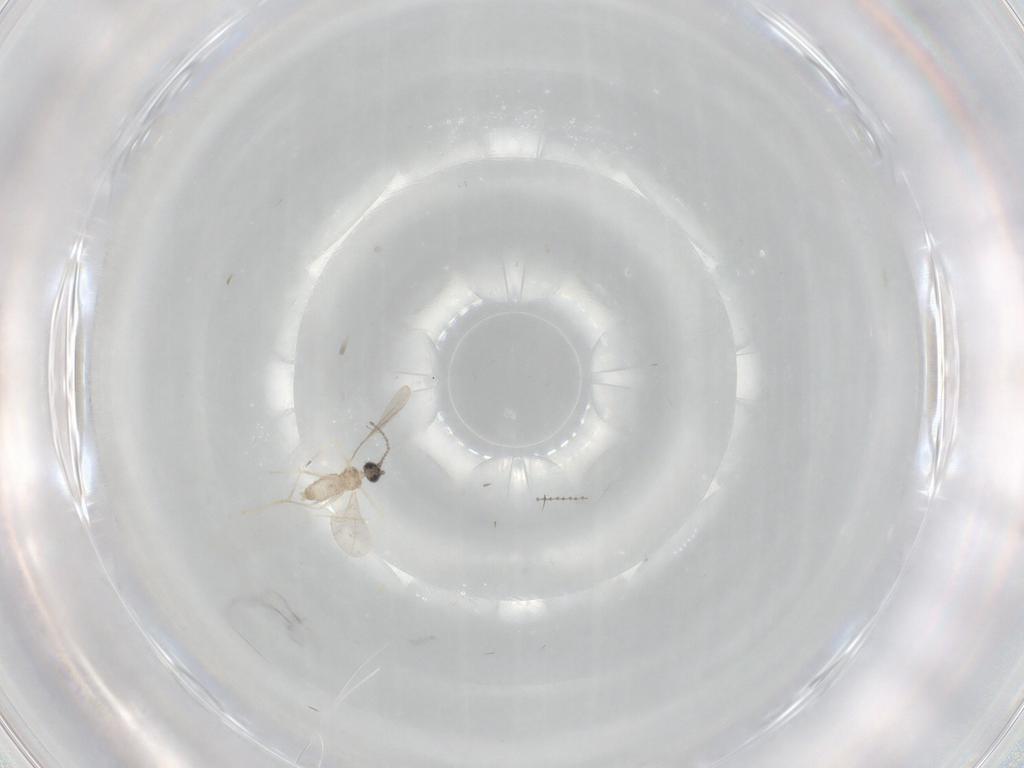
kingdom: Animalia
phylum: Arthropoda
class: Insecta
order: Diptera
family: Cecidomyiidae
